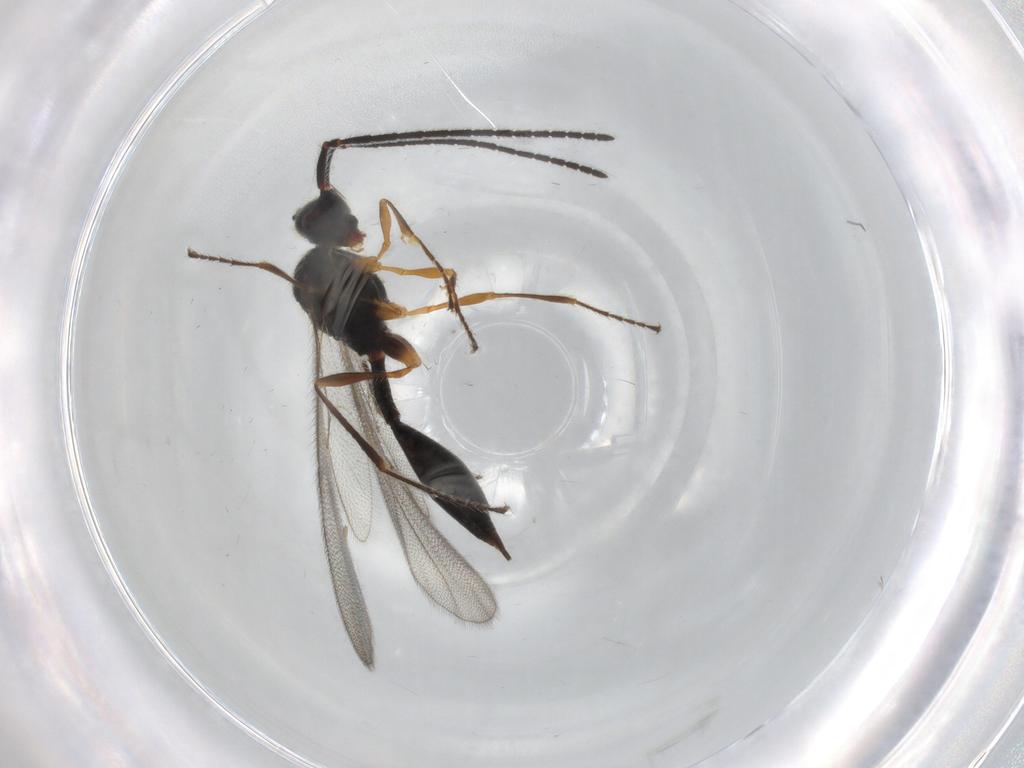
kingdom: Animalia
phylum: Arthropoda
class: Insecta
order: Hymenoptera
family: Diapriidae
